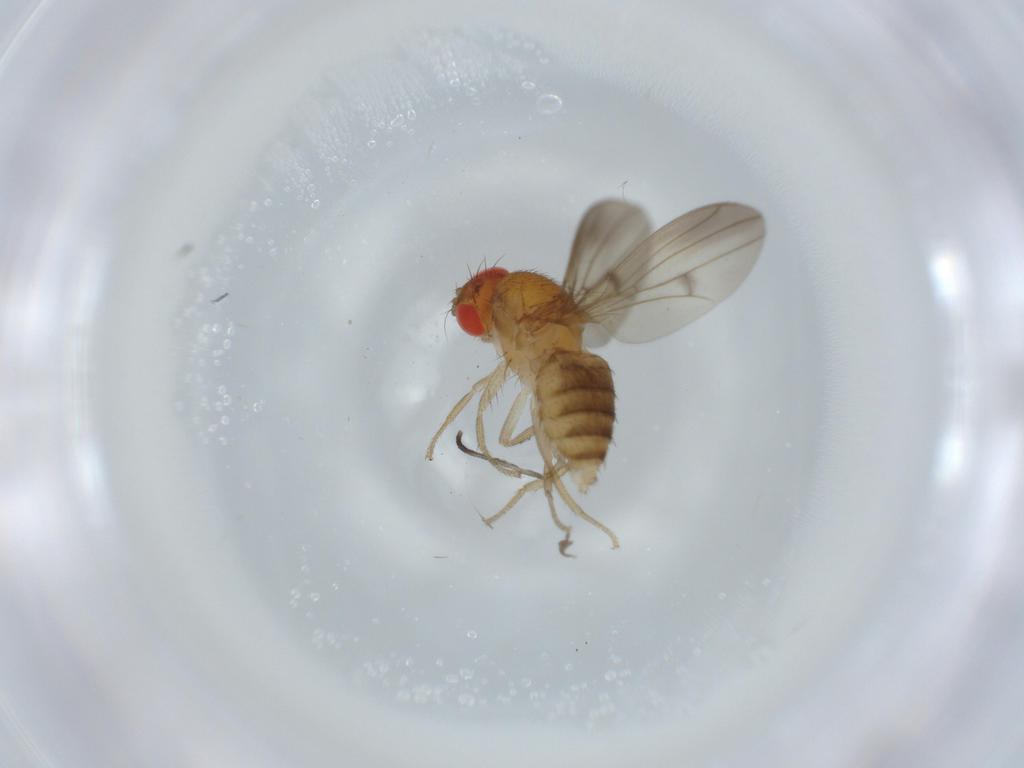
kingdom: Animalia
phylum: Arthropoda
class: Insecta
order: Diptera
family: Drosophilidae
